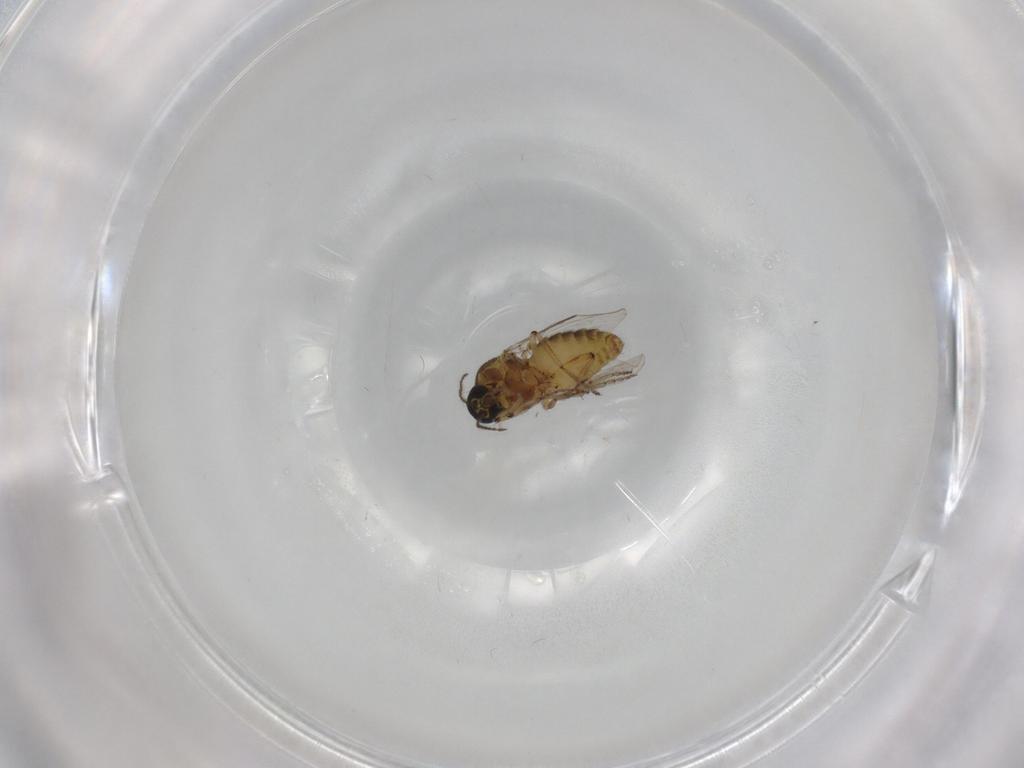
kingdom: Animalia
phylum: Arthropoda
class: Insecta
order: Diptera
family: Ceratopogonidae
